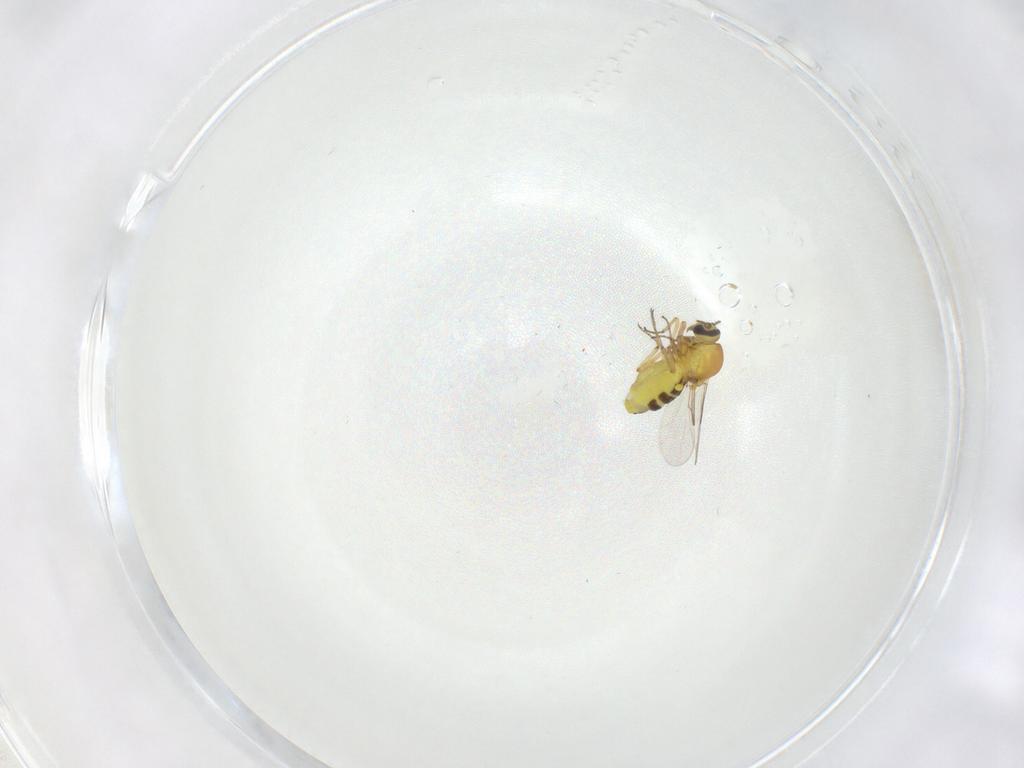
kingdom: Animalia
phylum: Arthropoda
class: Insecta
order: Diptera
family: Ceratopogonidae
